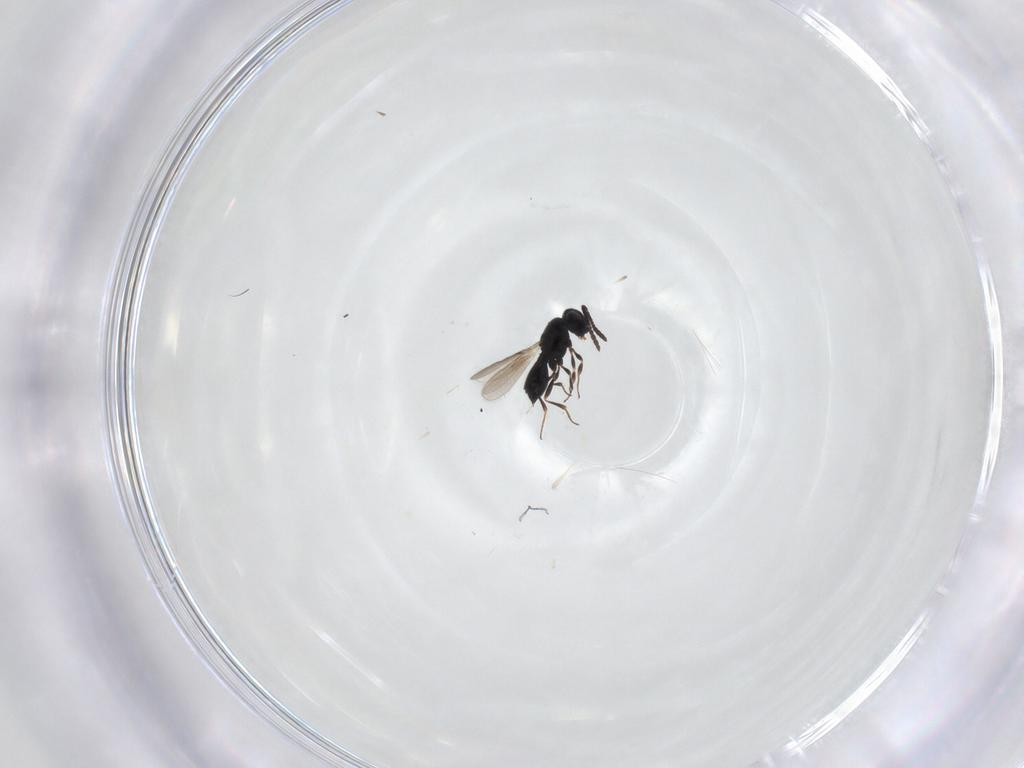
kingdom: Animalia
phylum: Arthropoda
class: Insecta
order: Hymenoptera
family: Scelionidae
